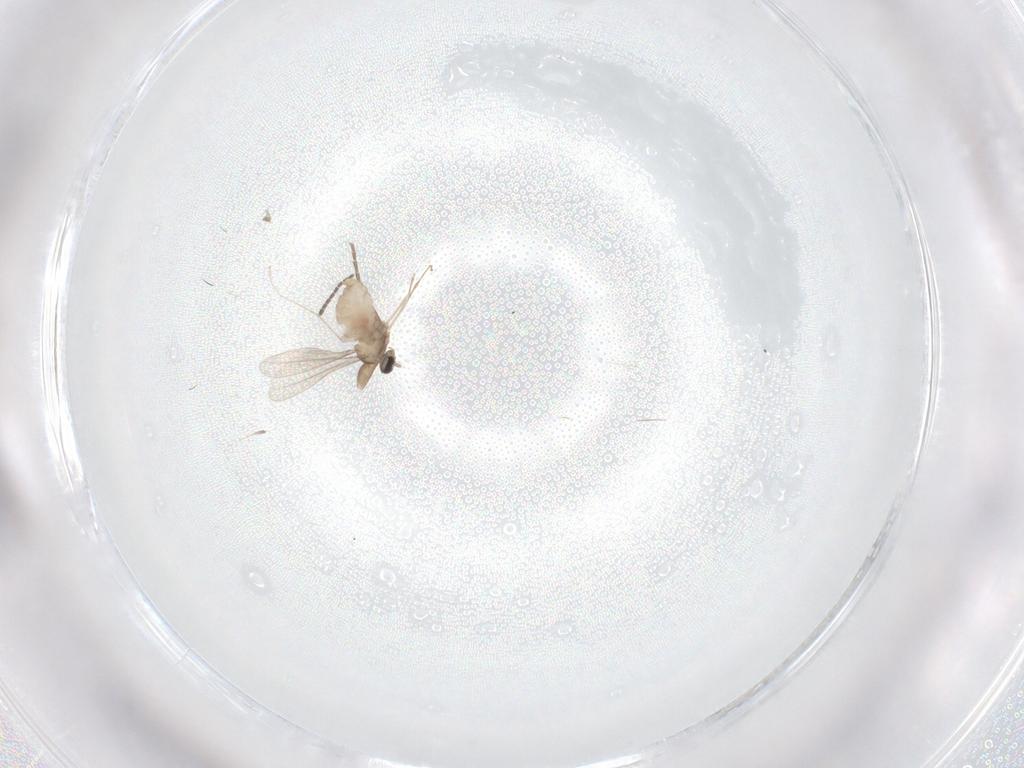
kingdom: Animalia
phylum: Arthropoda
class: Insecta
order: Diptera
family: Cecidomyiidae
